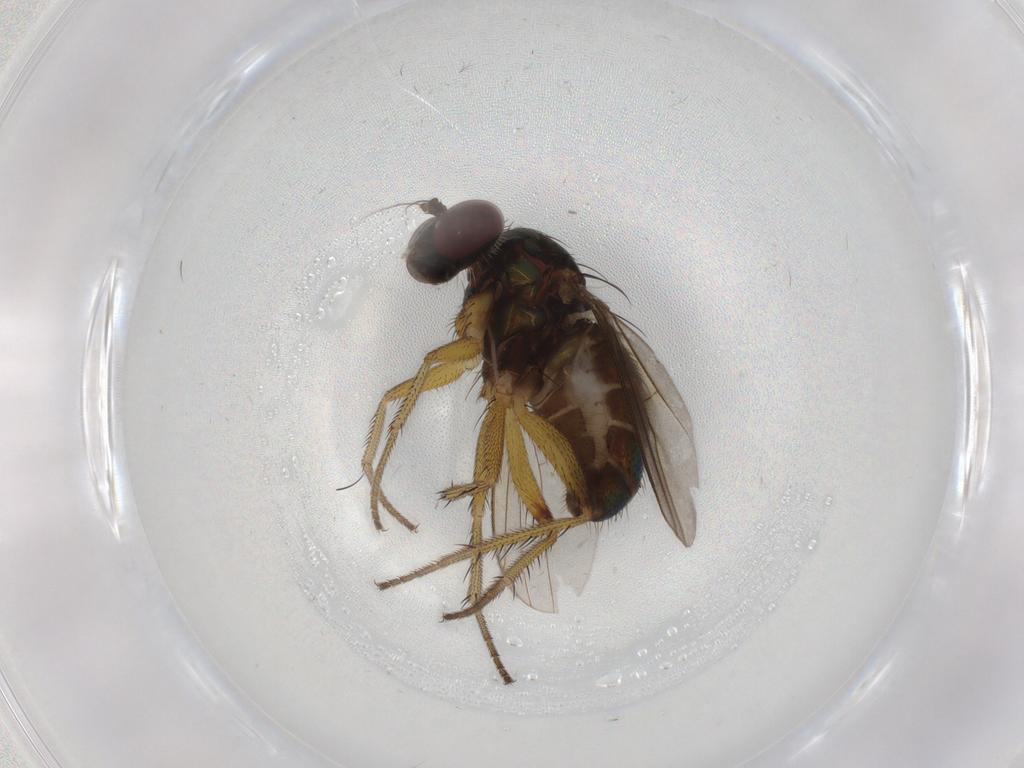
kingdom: Animalia
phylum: Arthropoda
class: Insecta
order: Diptera
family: Dolichopodidae
